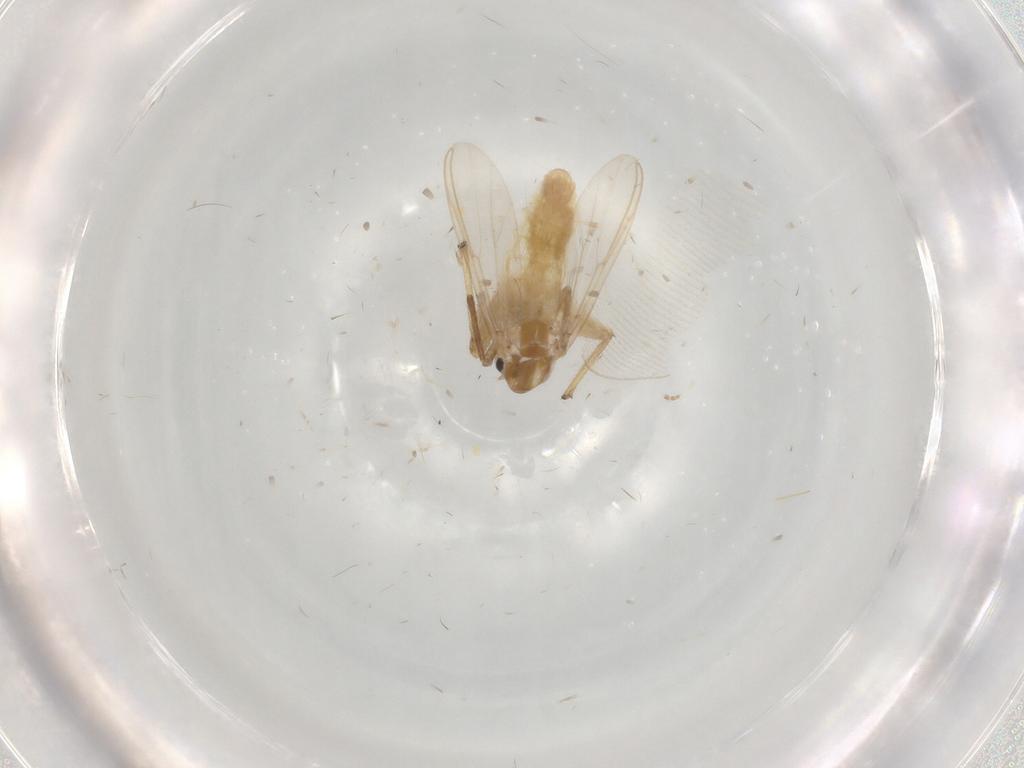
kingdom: Animalia
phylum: Arthropoda
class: Insecta
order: Diptera
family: Chironomidae
